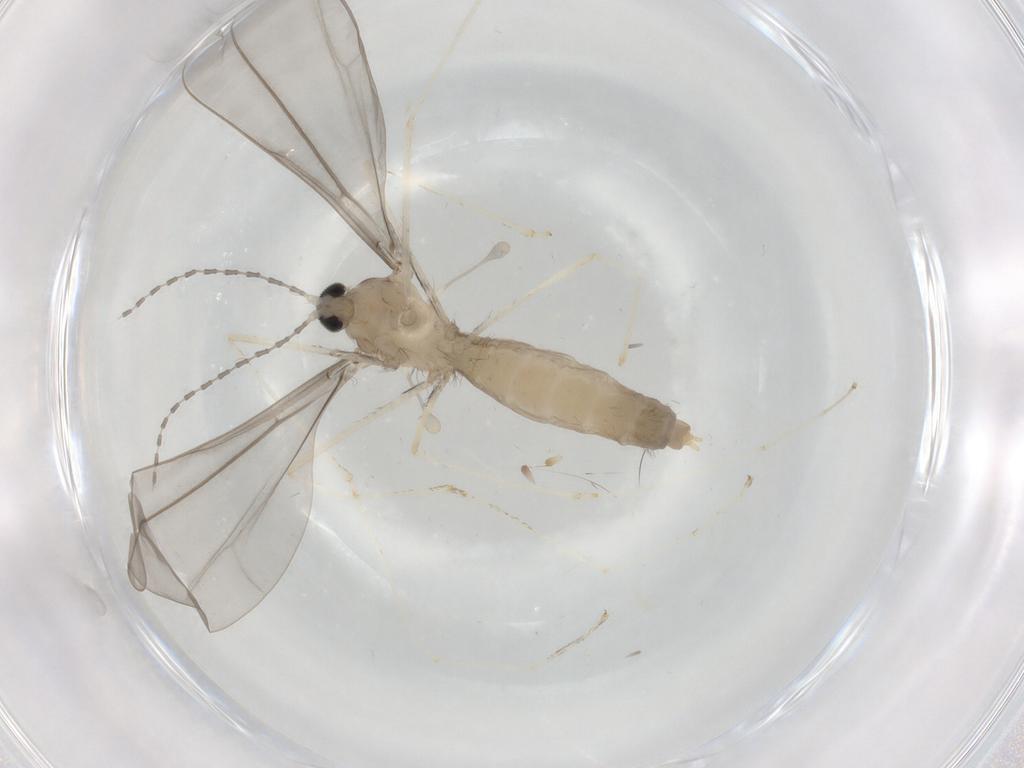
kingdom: Animalia
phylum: Arthropoda
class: Insecta
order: Diptera
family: Cecidomyiidae
